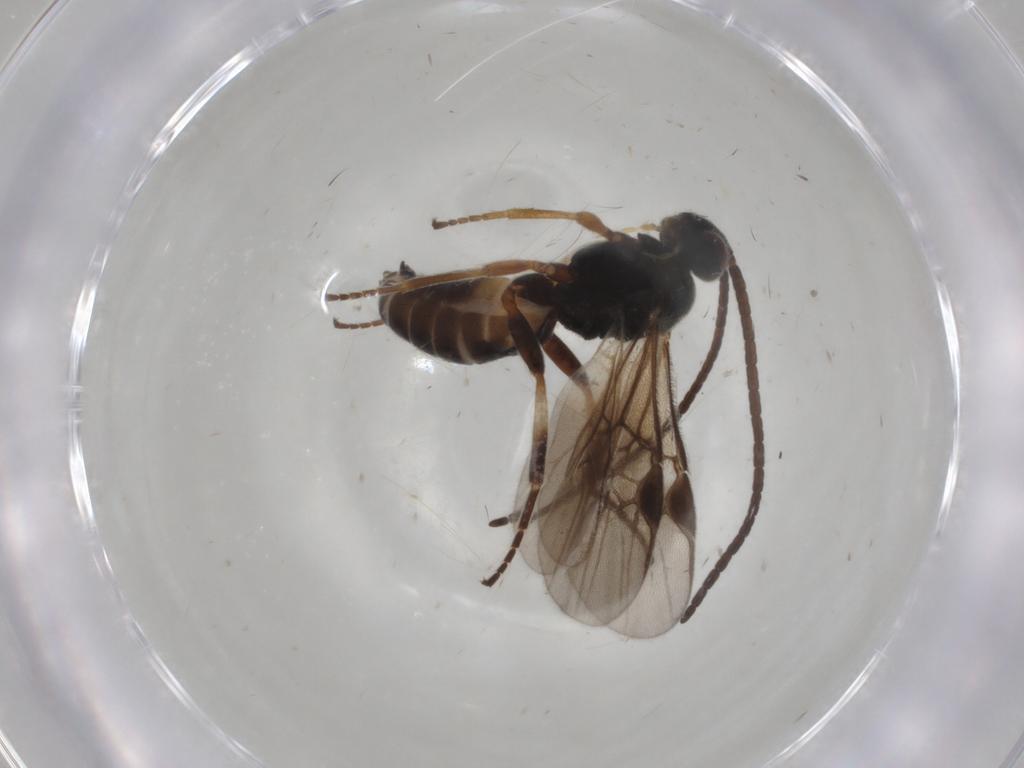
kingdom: Animalia
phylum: Arthropoda
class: Insecta
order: Hymenoptera
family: Braconidae
